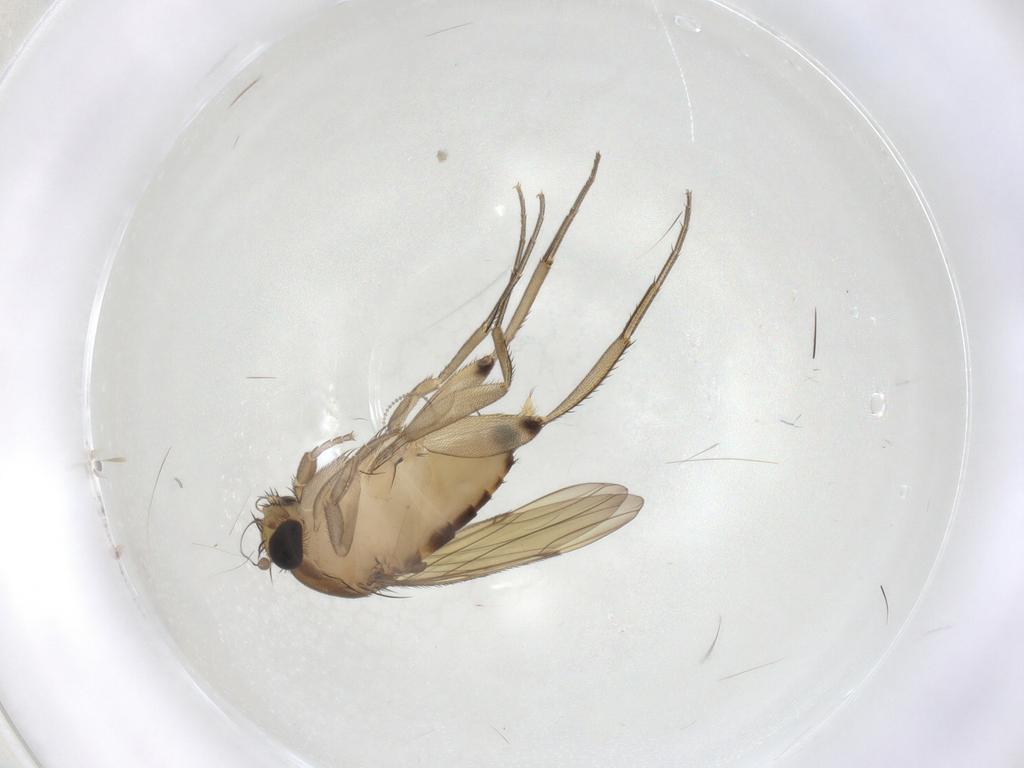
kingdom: Animalia
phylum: Arthropoda
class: Insecta
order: Diptera
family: Phoridae
